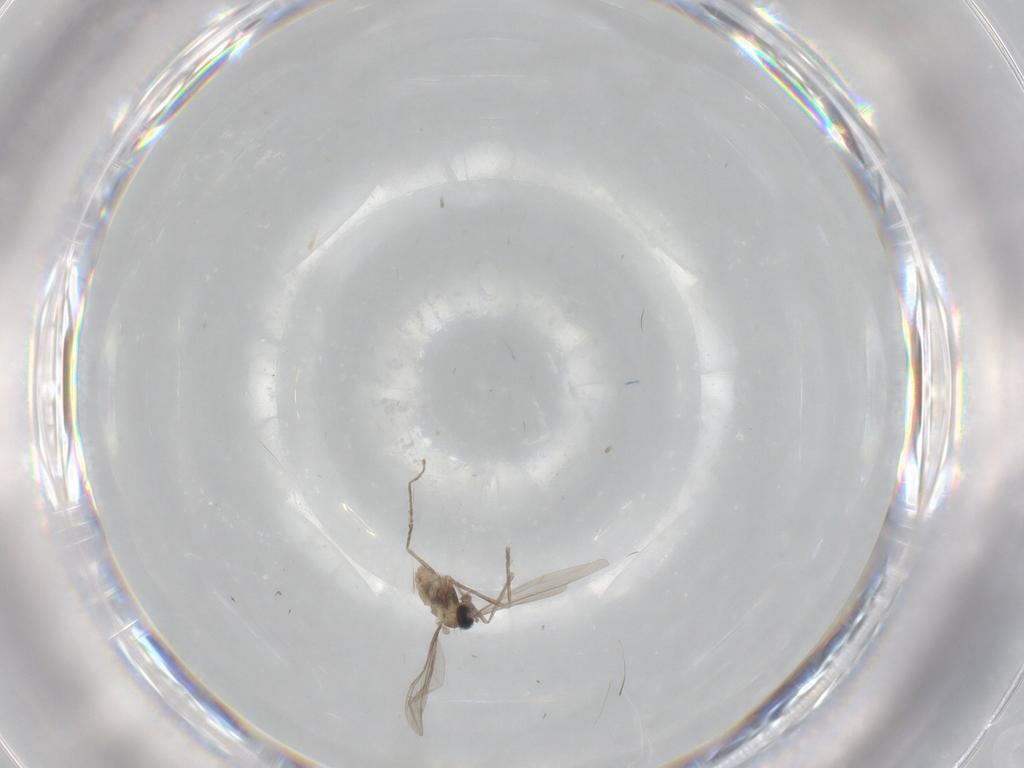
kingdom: Animalia
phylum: Arthropoda
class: Insecta
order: Diptera
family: Cecidomyiidae
